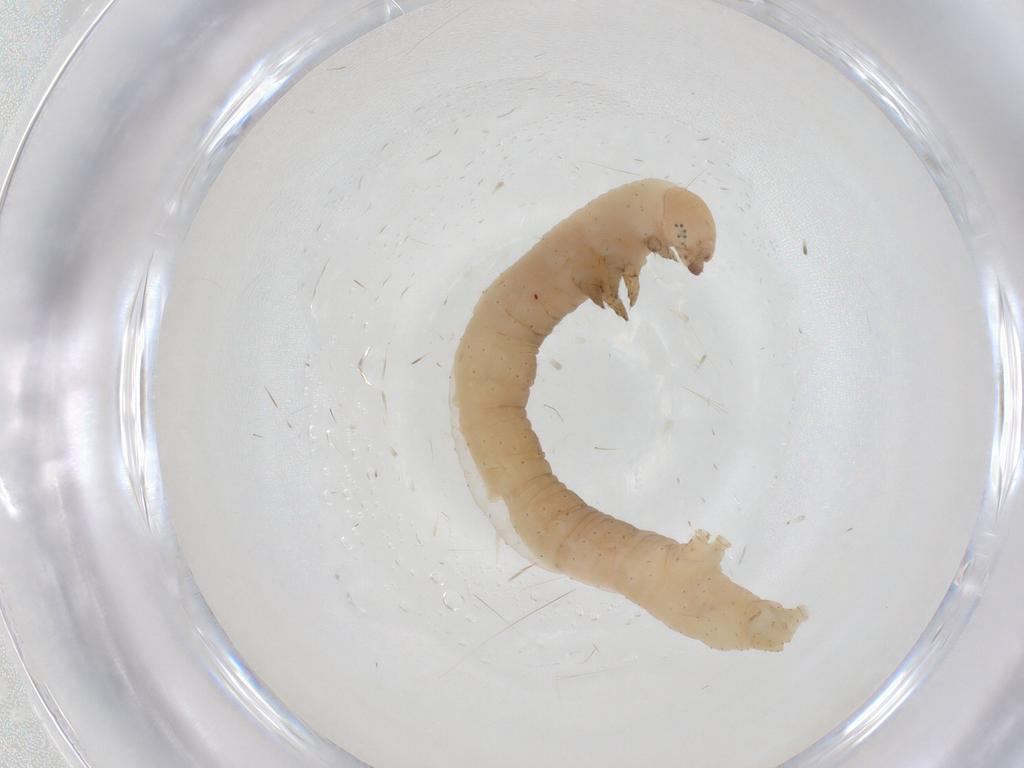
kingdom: Animalia
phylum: Arthropoda
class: Insecta
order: Lepidoptera
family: Geometridae
